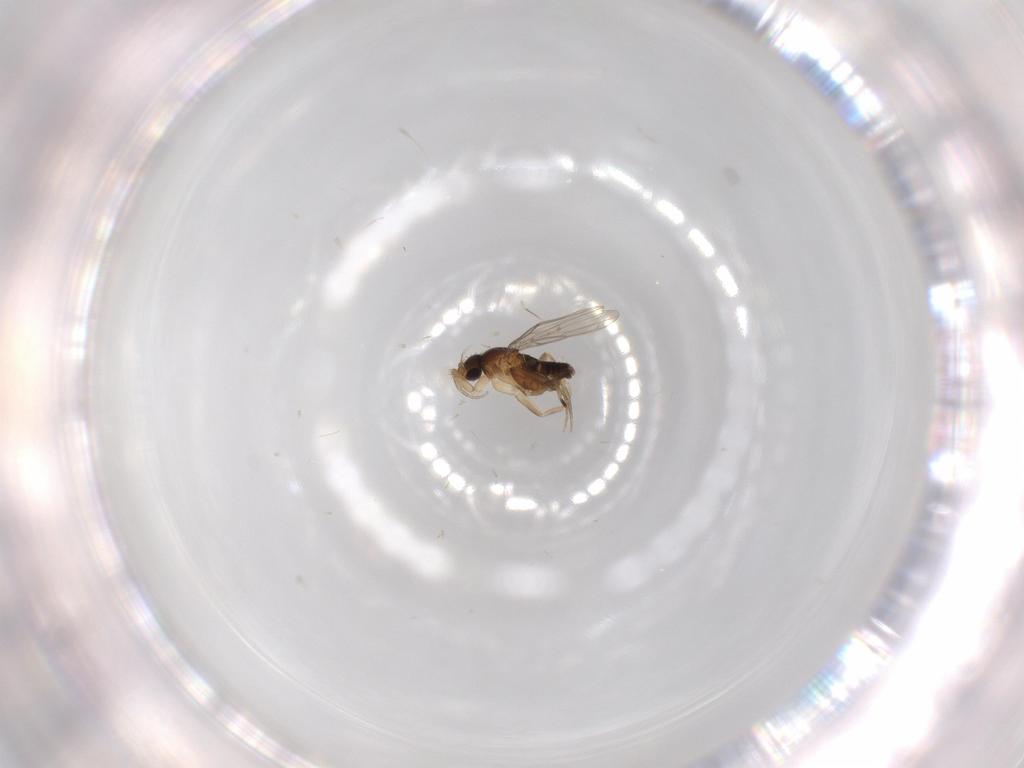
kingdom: Animalia
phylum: Arthropoda
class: Insecta
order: Diptera
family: Phoridae
